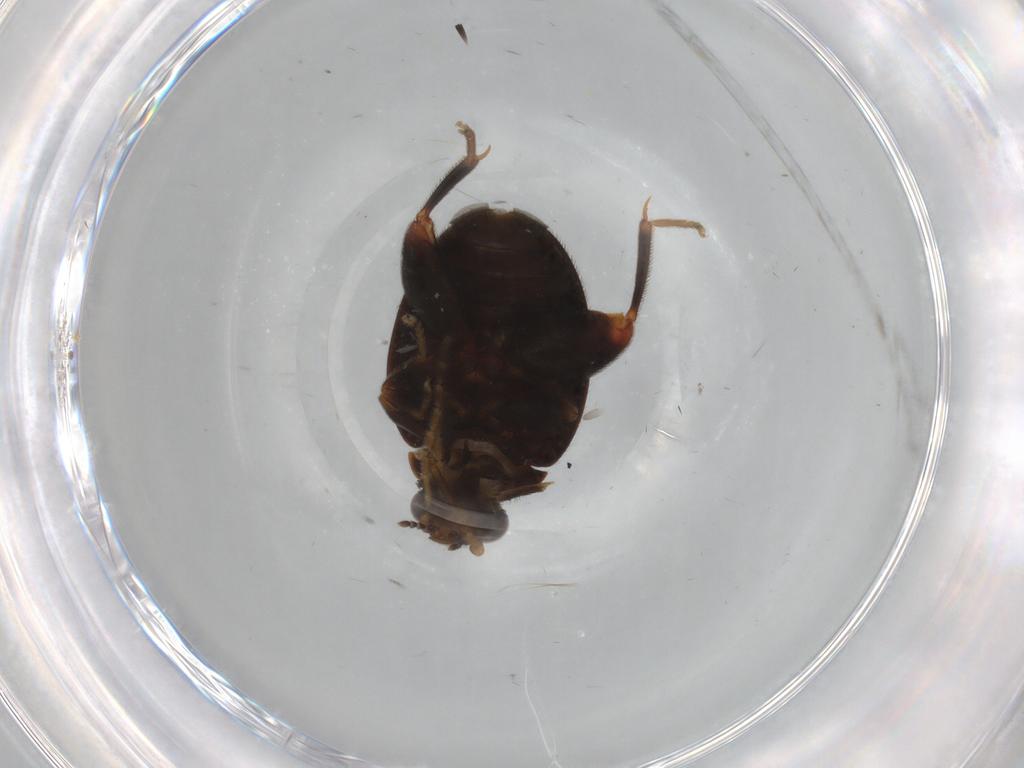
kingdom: Animalia
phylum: Arthropoda
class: Insecta
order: Coleoptera
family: Scirtidae
